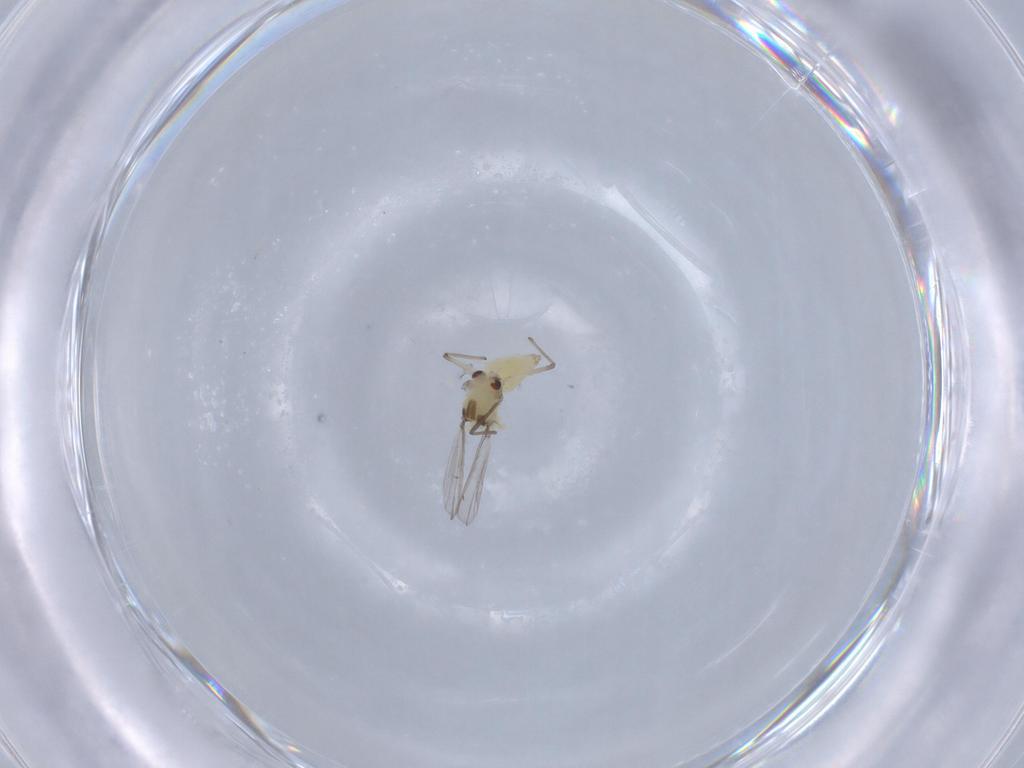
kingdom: Animalia
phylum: Arthropoda
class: Insecta
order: Diptera
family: Chironomidae
